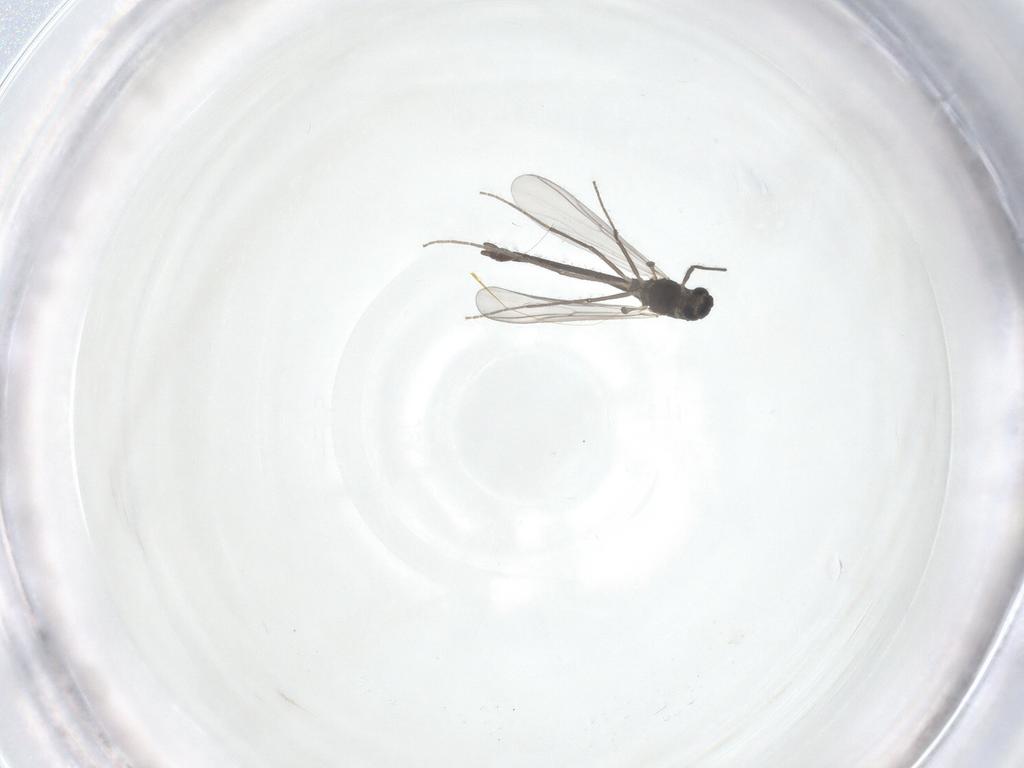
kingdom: Animalia
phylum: Arthropoda
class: Insecta
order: Diptera
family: Chironomidae
